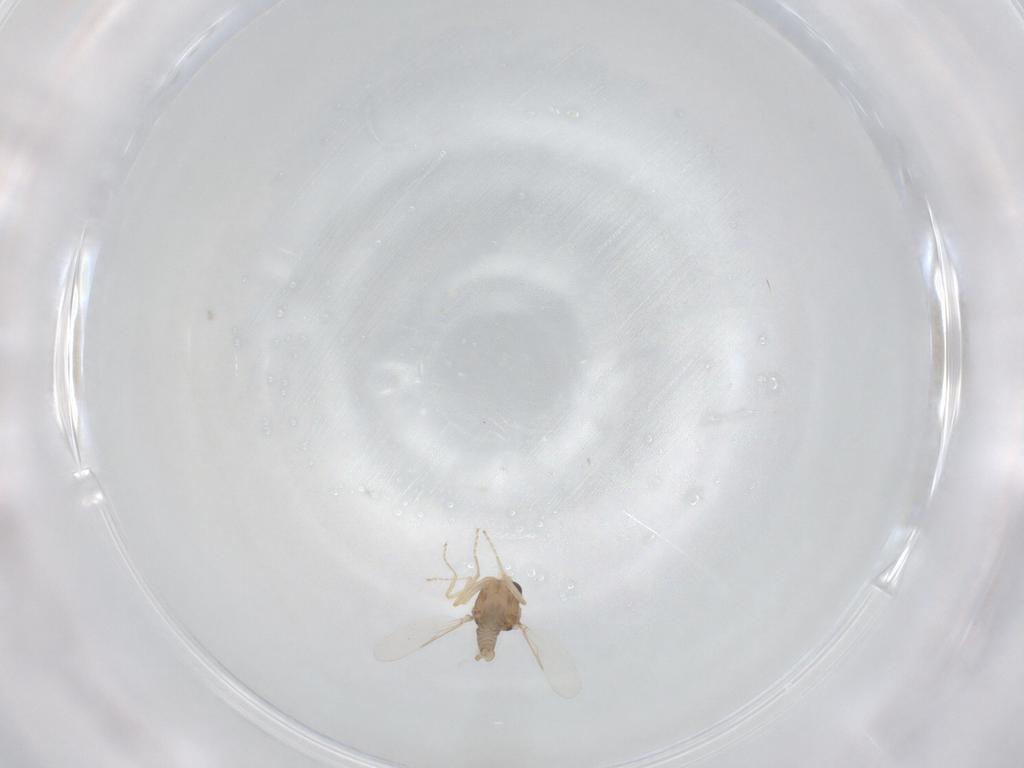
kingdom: Animalia
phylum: Arthropoda
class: Insecta
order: Diptera
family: Ceratopogonidae
